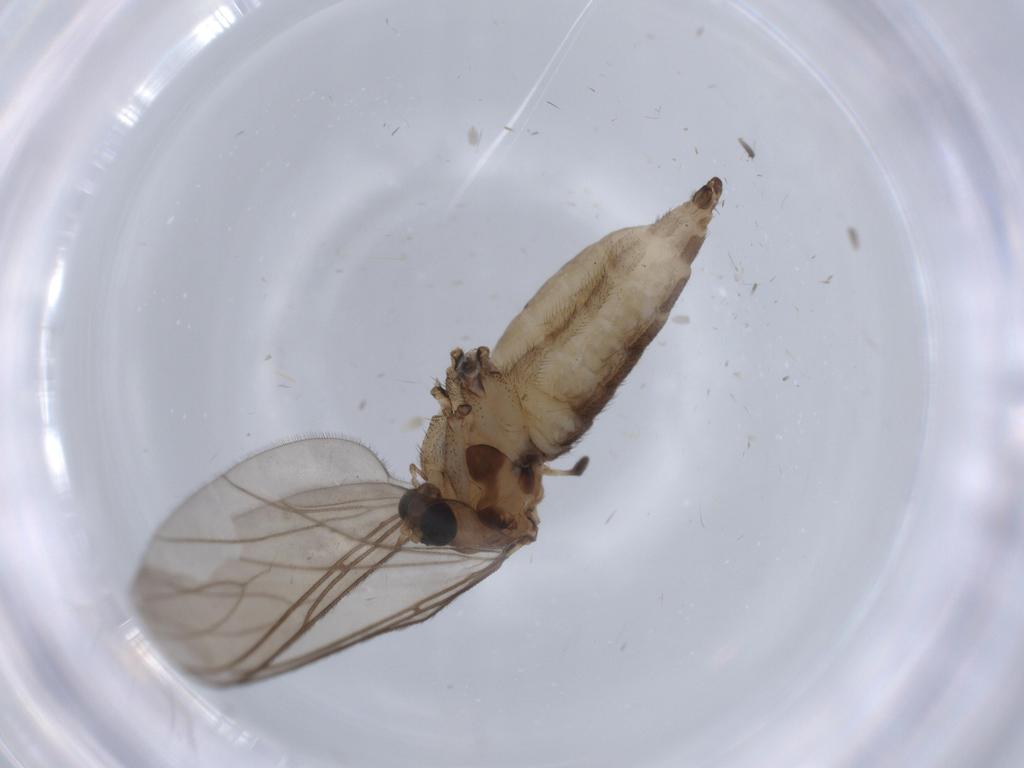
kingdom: Animalia
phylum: Arthropoda
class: Insecta
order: Diptera
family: Sciaridae
